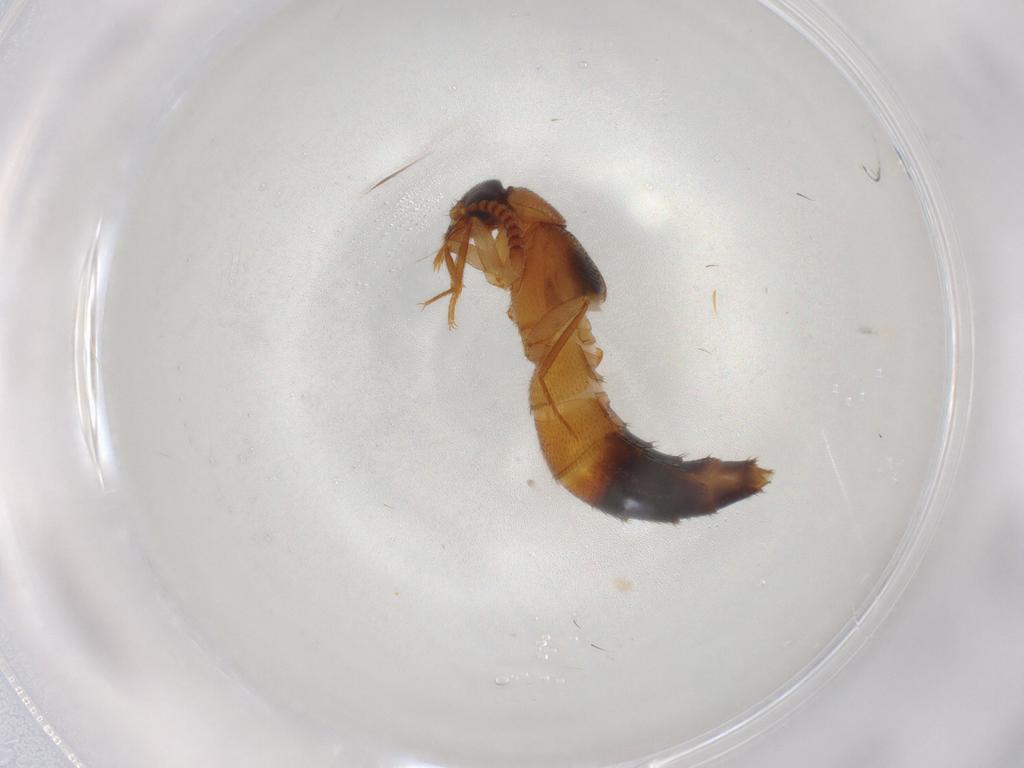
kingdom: Animalia
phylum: Arthropoda
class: Insecta
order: Coleoptera
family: Staphylinidae
